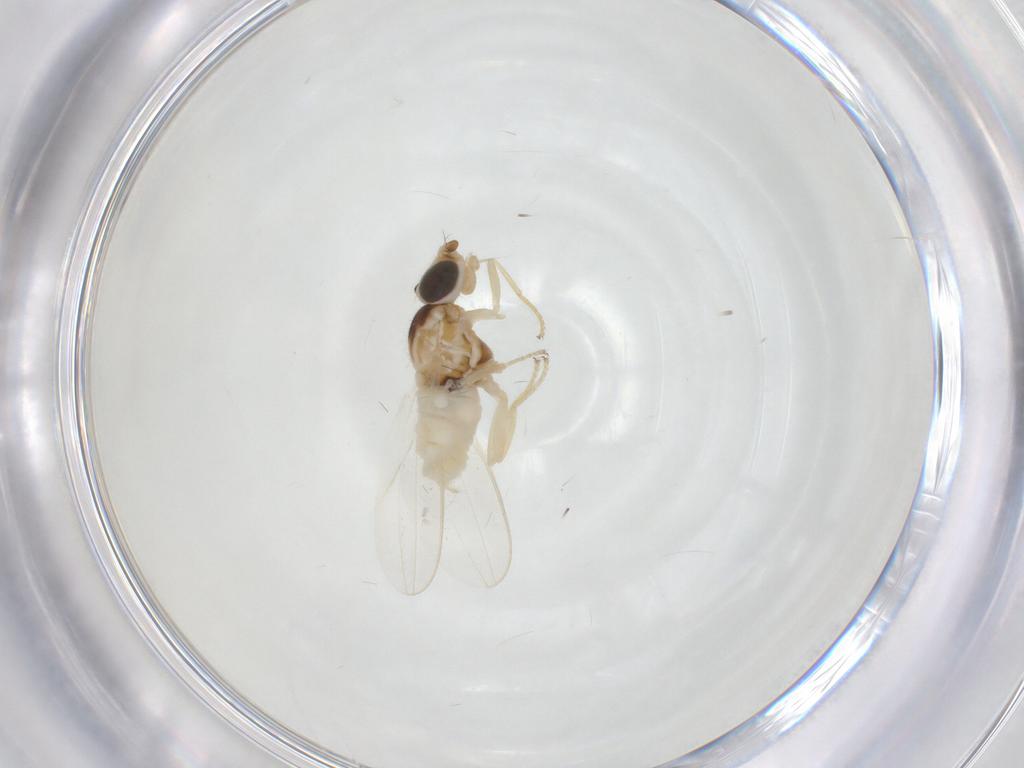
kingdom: Animalia
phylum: Arthropoda
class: Insecta
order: Diptera
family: Chloropidae
